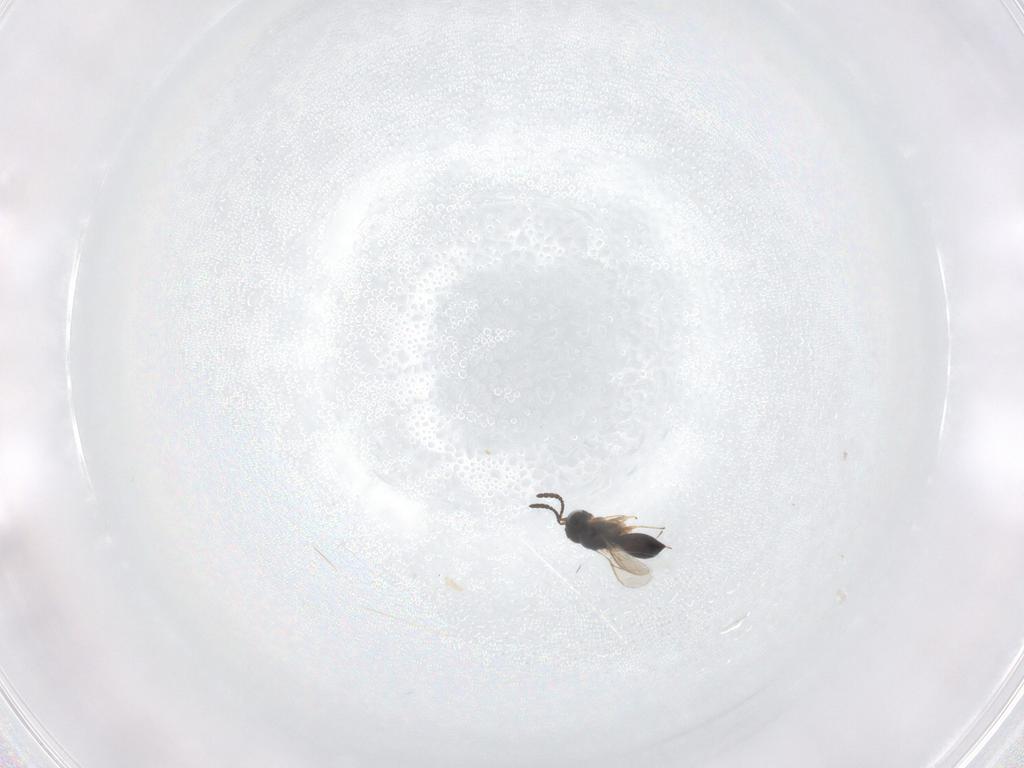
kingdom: Animalia
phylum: Arthropoda
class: Insecta
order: Hymenoptera
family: Scelionidae
